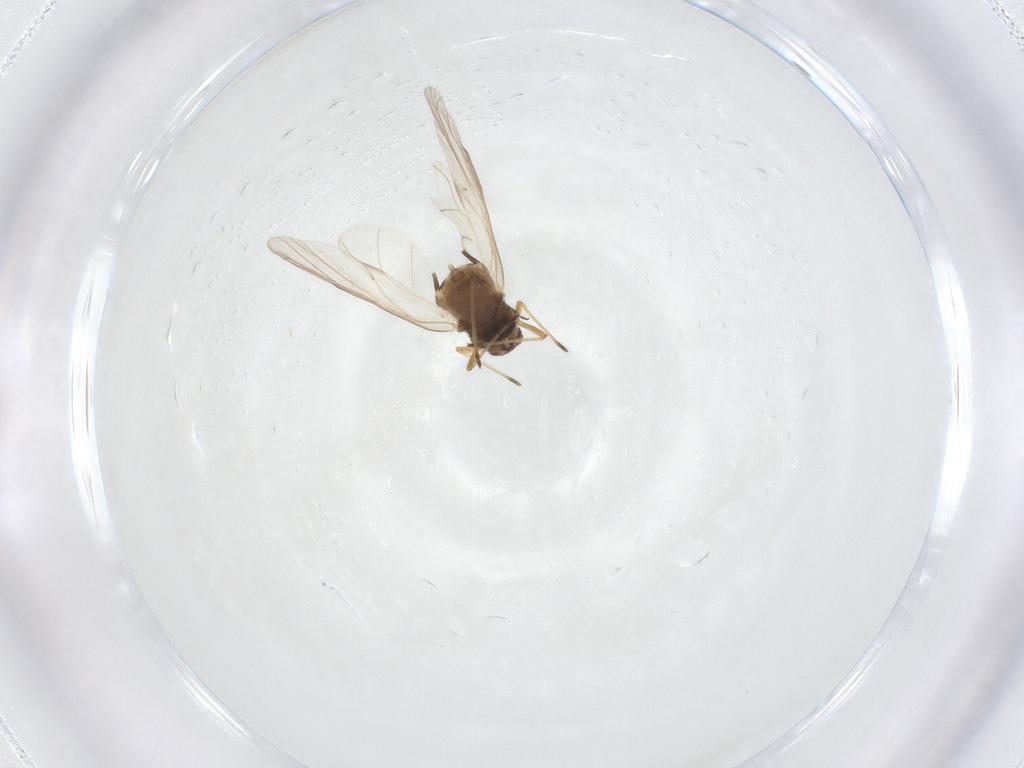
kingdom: Animalia
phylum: Arthropoda
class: Insecta
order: Hemiptera
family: Aphididae
